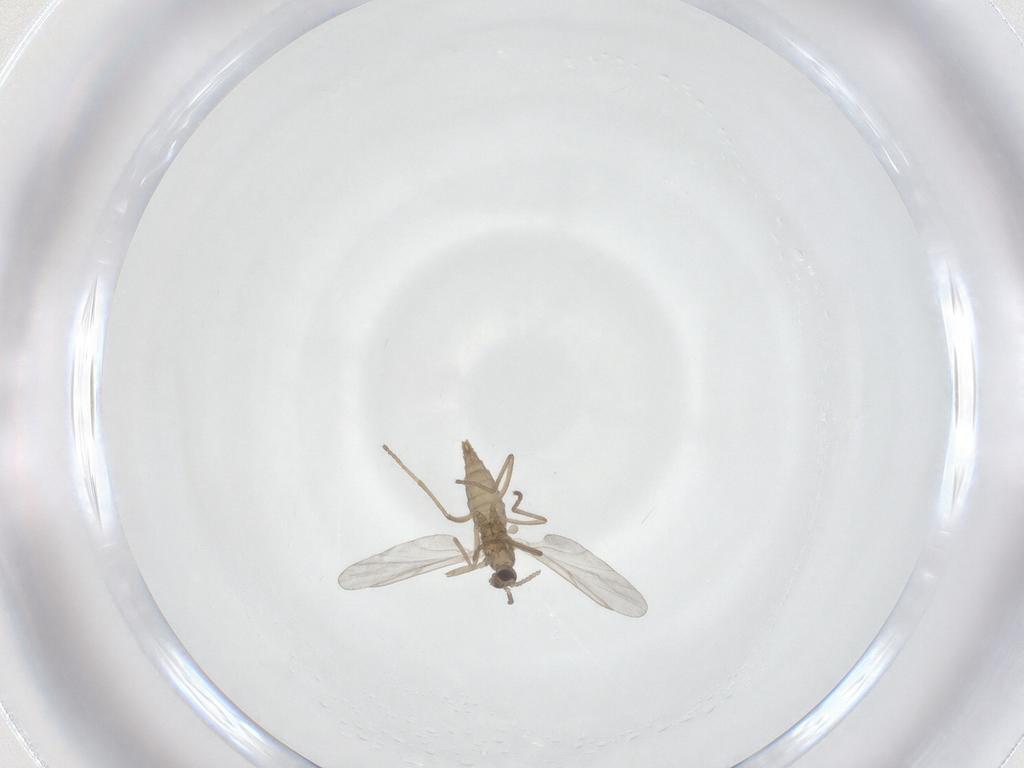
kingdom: Animalia
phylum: Arthropoda
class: Insecta
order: Diptera
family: Cecidomyiidae
